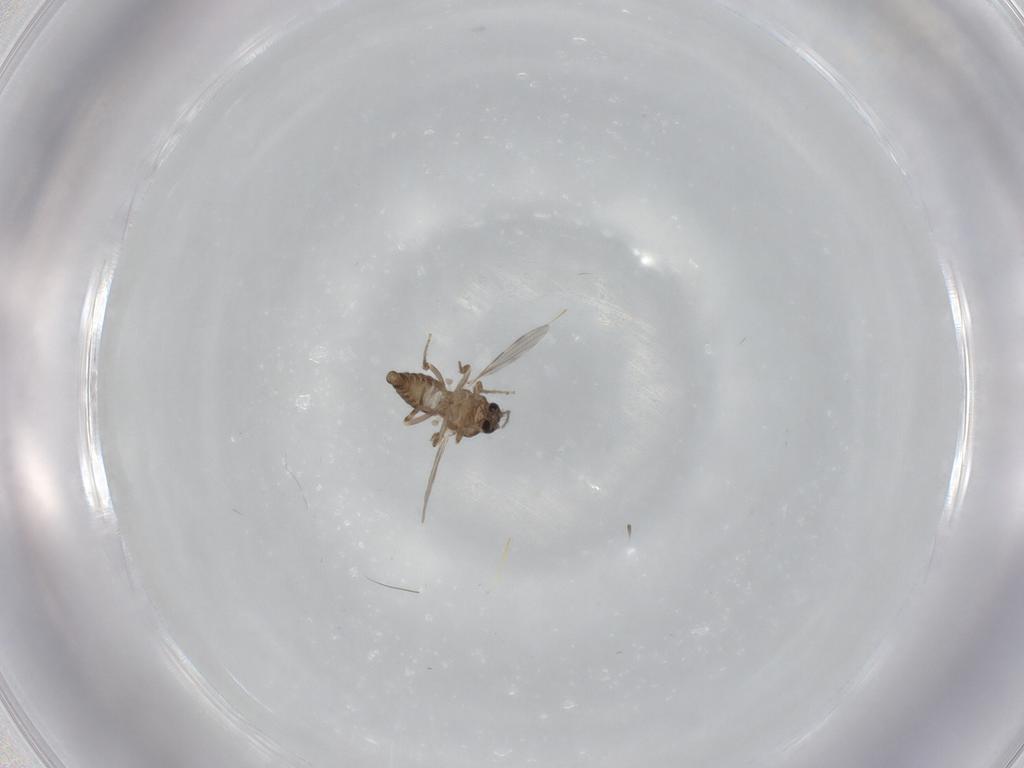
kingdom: Animalia
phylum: Arthropoda
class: Insecta
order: Diptera
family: Ceratopogonidae
